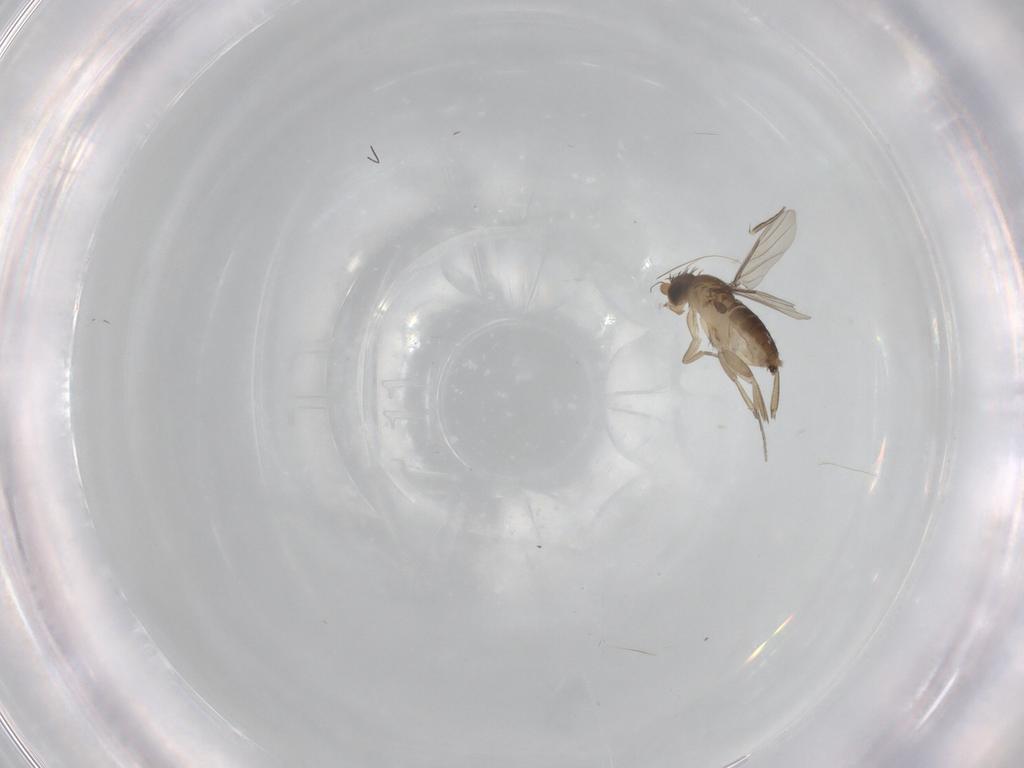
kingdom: Animalia
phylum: Arthropoda
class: Insecta
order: Diptera
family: Phoridae
